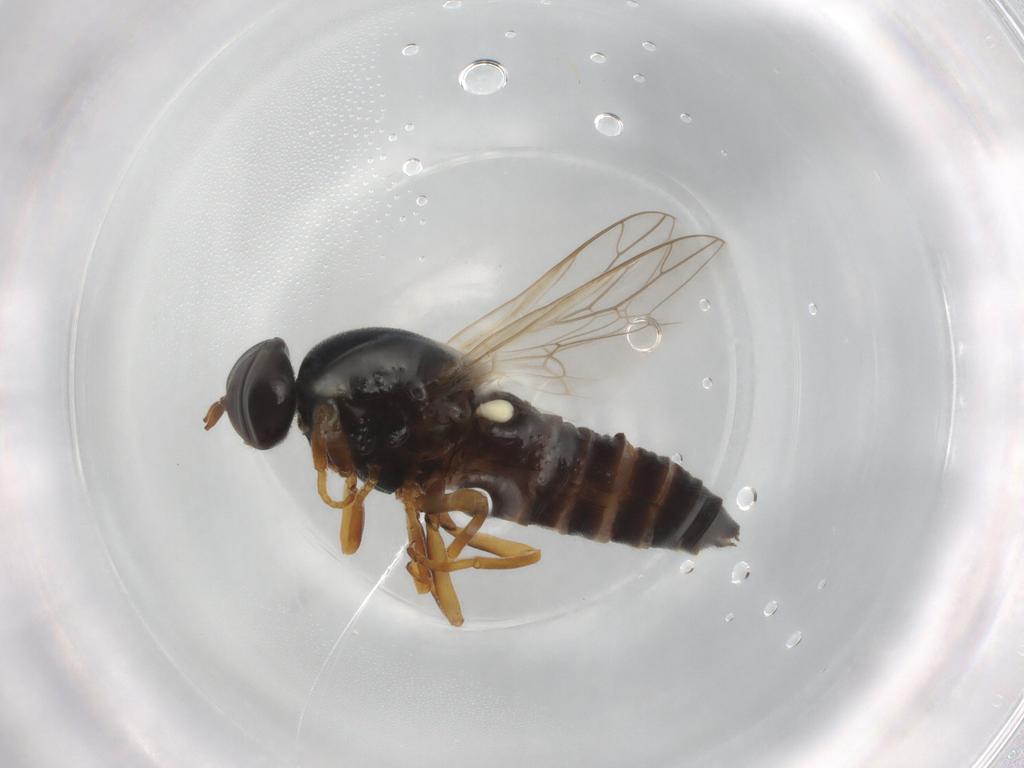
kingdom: Animalia
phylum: Arthropoda
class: Insecta
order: Diptera
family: Scenopinidae
